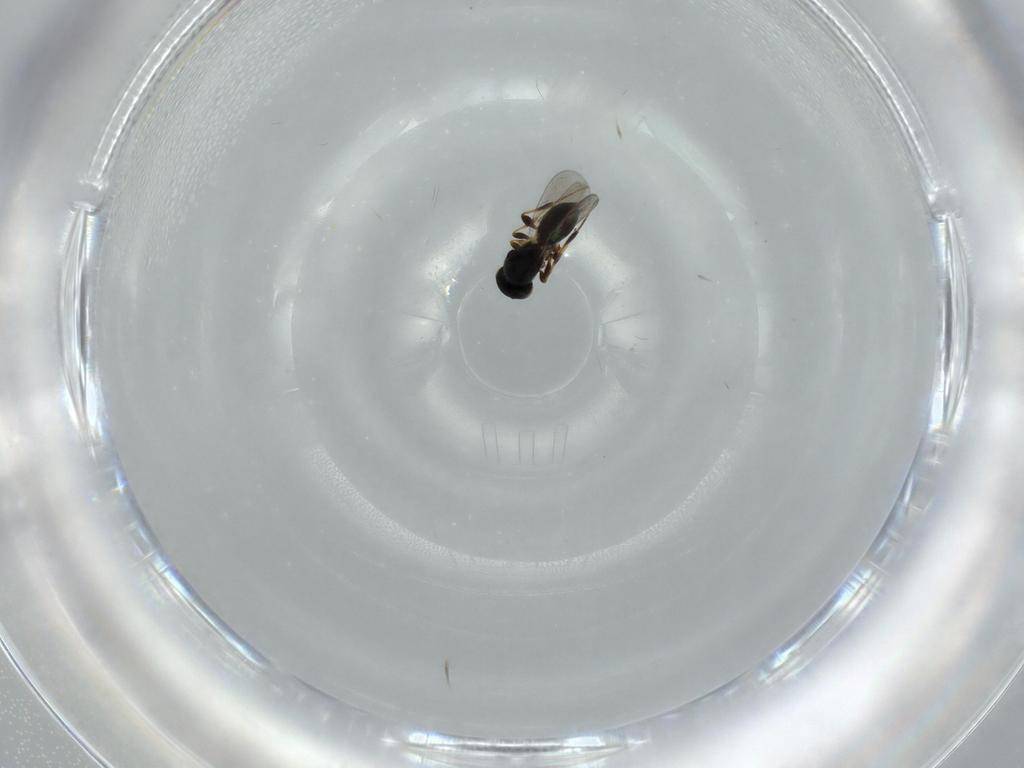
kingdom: Animalia
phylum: Arthropoda
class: Insecta
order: Hymenoptera
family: Platygastridae
